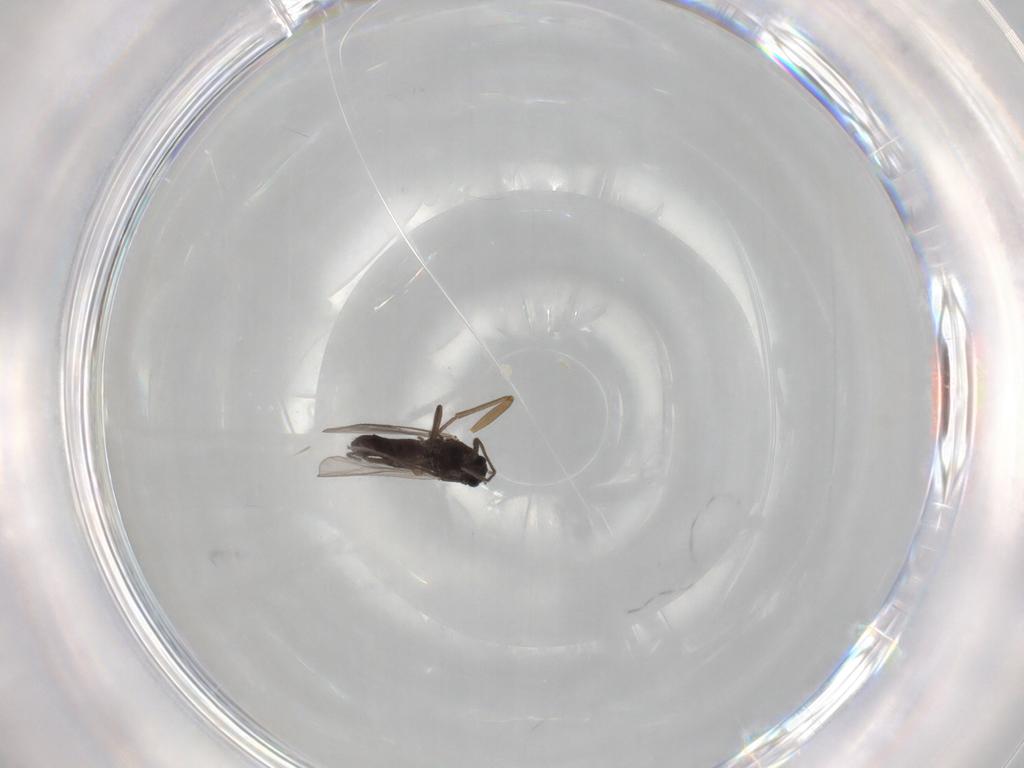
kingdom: Animalia
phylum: Arthropoda
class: Insecta
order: Diptera
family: Chironomidae
